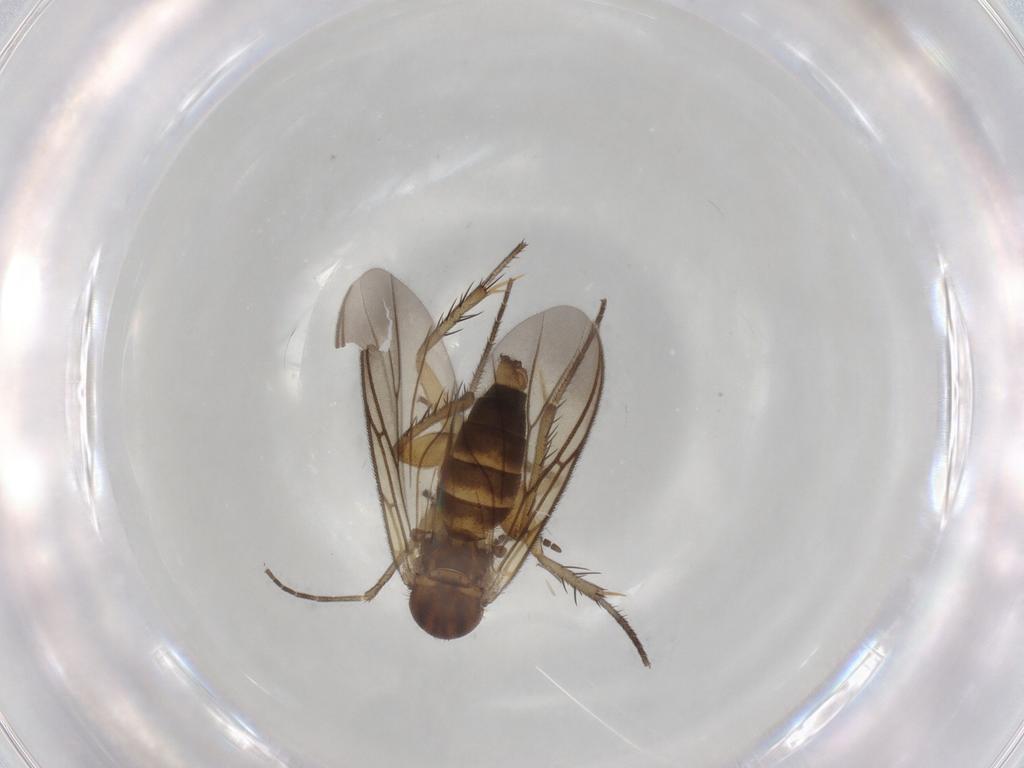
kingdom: Animalia
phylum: Arthropoda
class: Insecta
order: Diptera
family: Mycetophilidae
